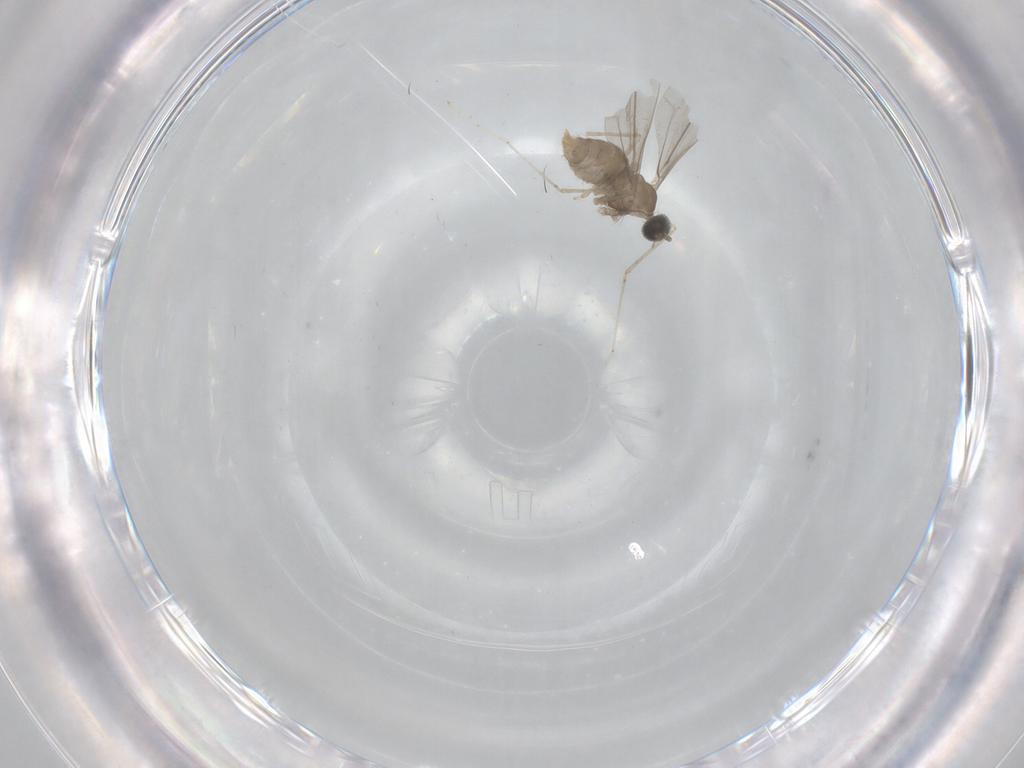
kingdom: Animalia
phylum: Arthropoda
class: Insecta
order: Diptera
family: Cecidomyiidae
